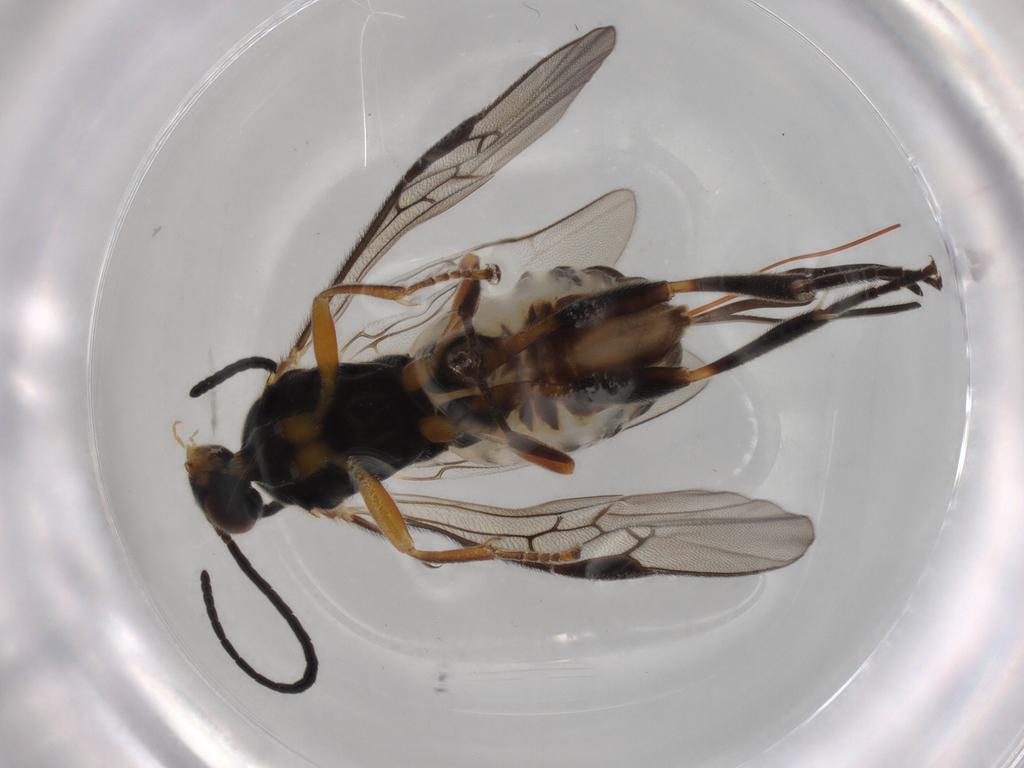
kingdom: Animalia
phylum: Arthropoda
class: Insecta
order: Hymenoptera
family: Braconidae
